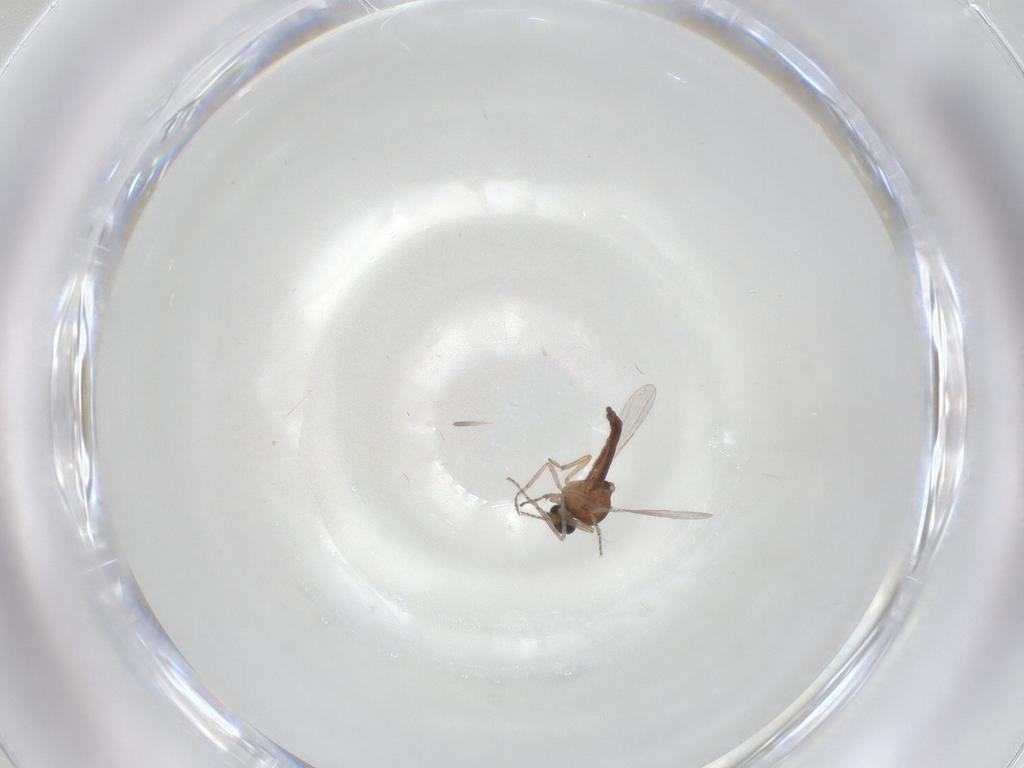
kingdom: Animalia
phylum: Arthropoda
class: Insecta
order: Diptera
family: Ceratopogonidae
